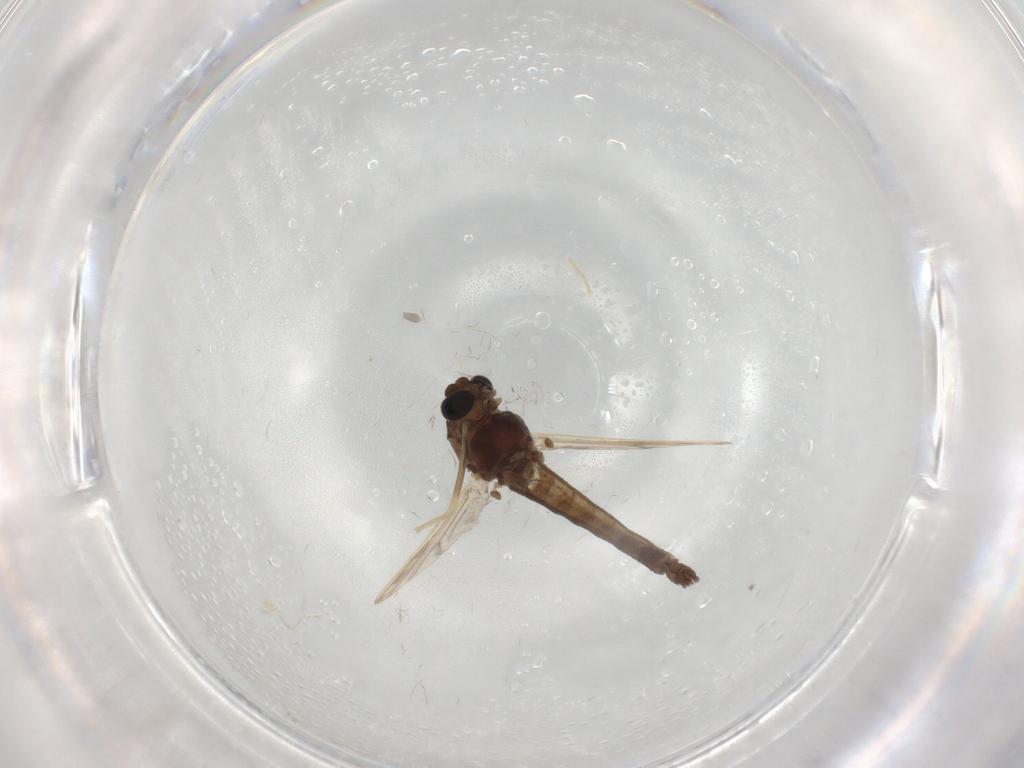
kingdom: Animalia
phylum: Arthropoda
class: Insecta
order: Diptera
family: Chironomidae
